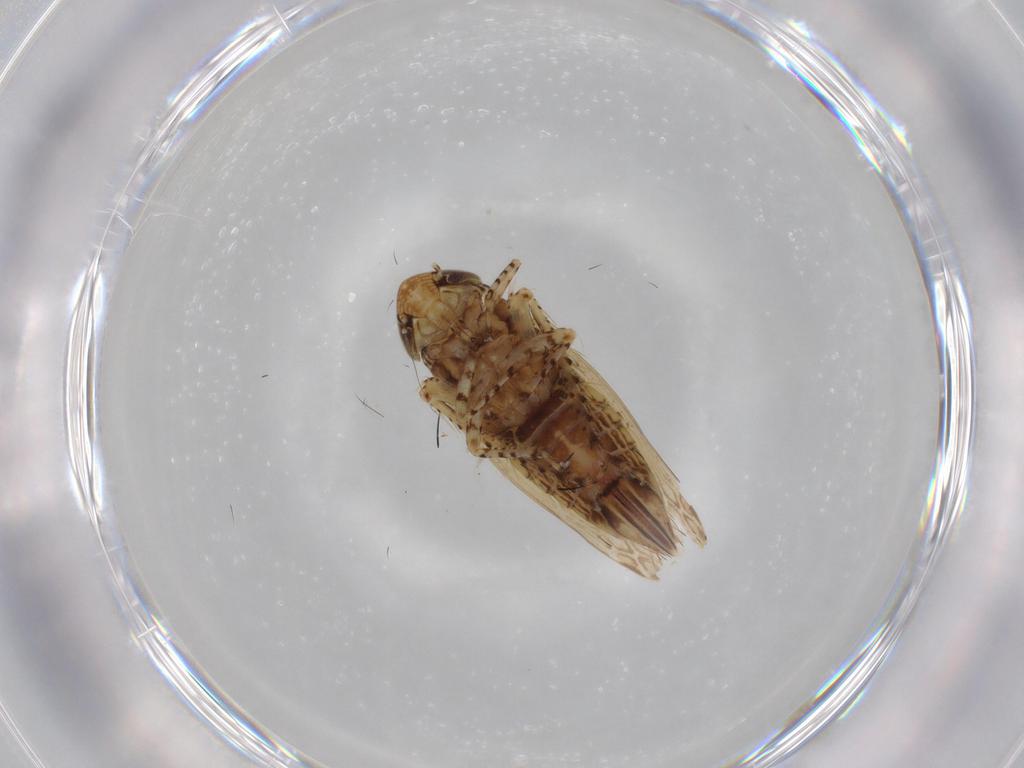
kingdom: Animalia
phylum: Arthropoda
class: Insecta
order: Hemiptera
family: Cicadellidae
